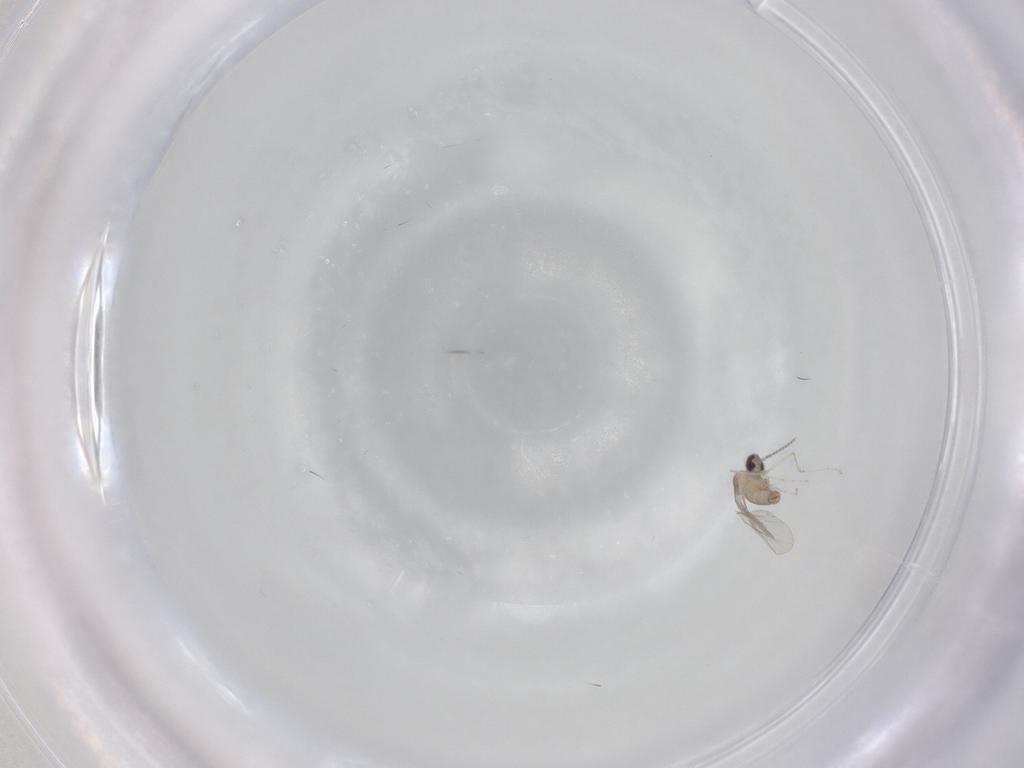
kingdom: Animalia
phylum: Arthropoda
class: Insecta
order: Diptera
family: Cecidomyiidae
